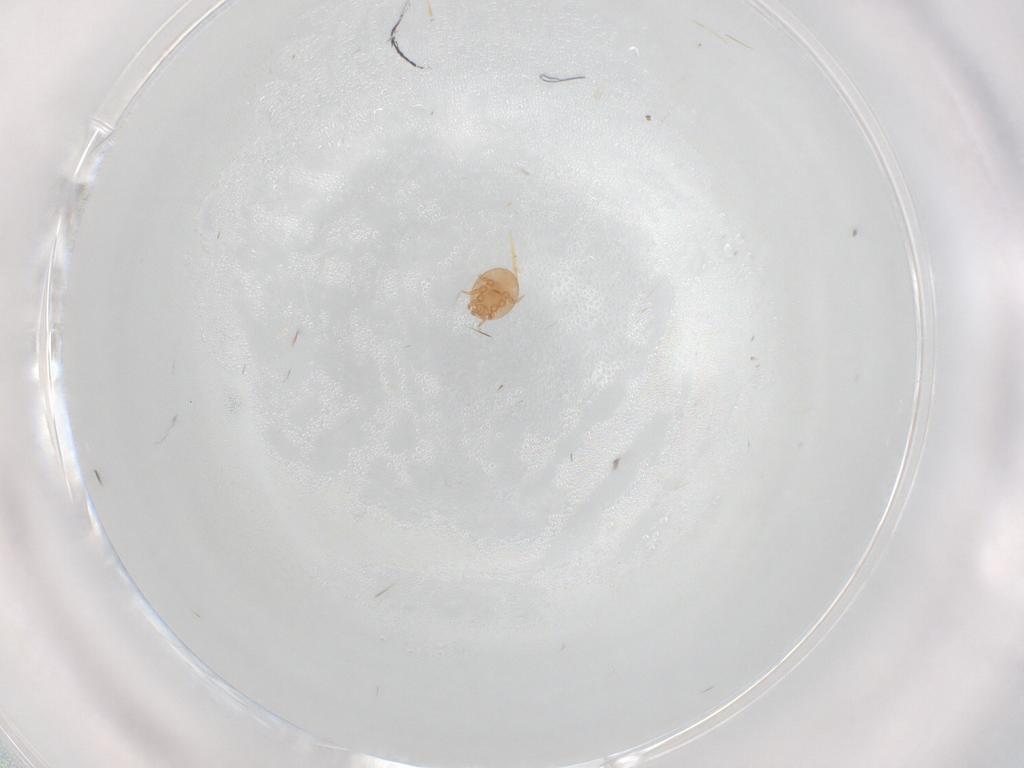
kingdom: Animalia
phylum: Arthropoda
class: Arachnida
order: Mesostigmata
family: Trematuridae
